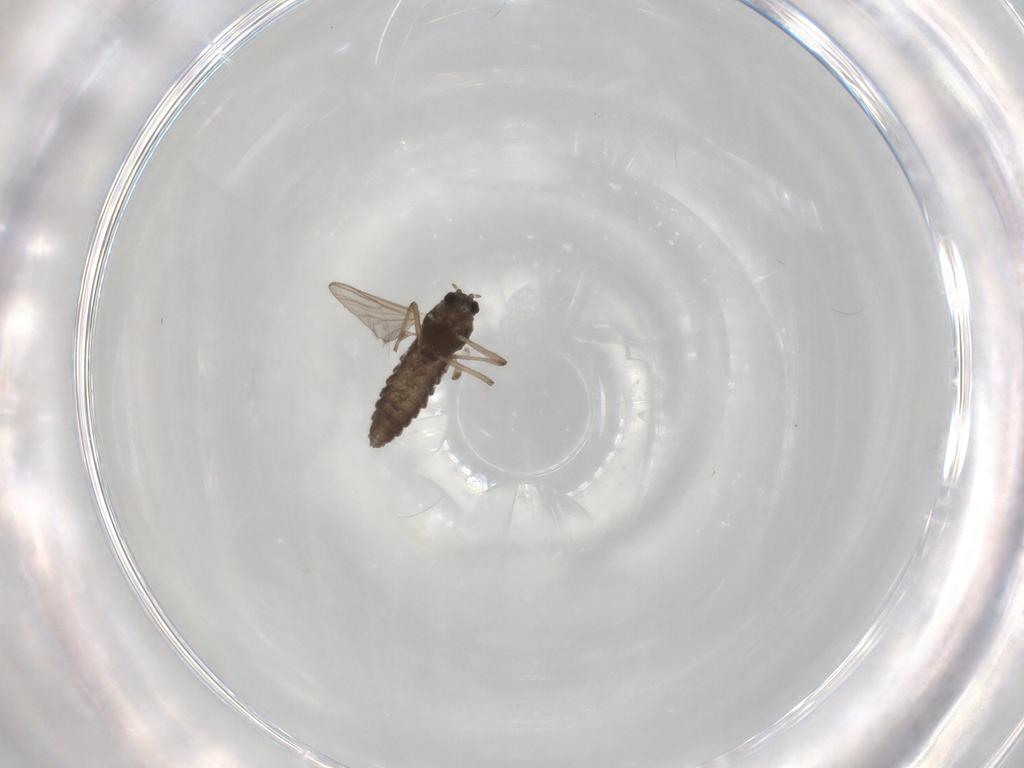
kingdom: Animalia
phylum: Arthropoda
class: Insecta
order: Diptera
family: Chironomidae
